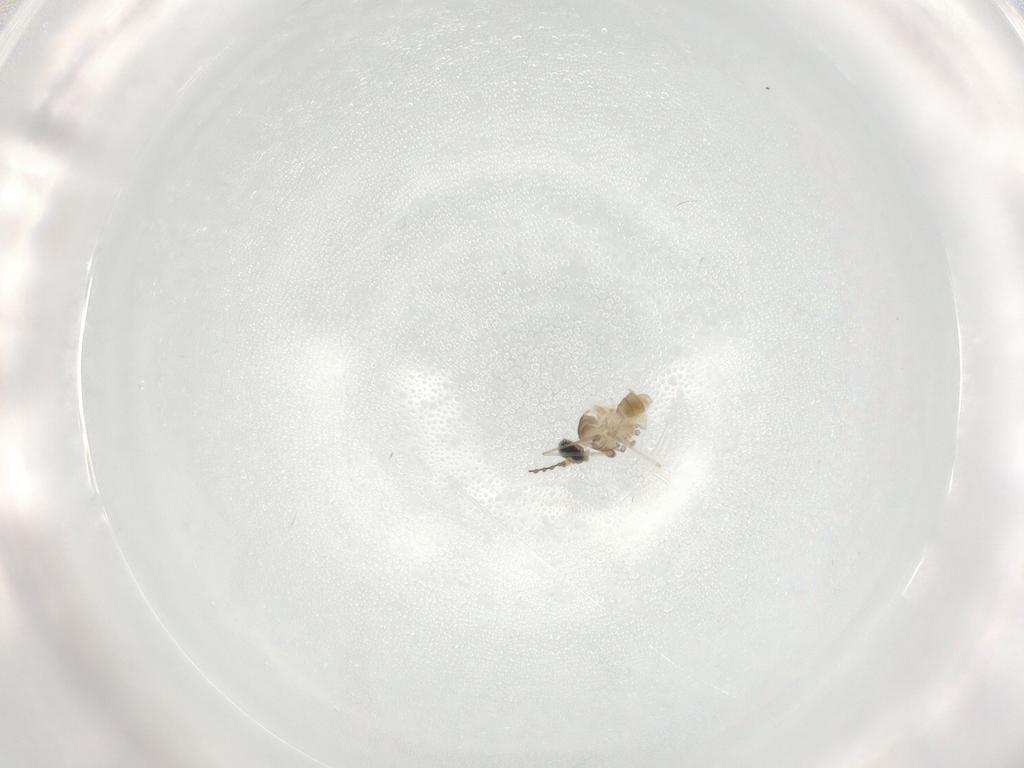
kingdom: Animalia
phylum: Arthropoda
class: Insecta
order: Diptera
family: Cecidomyiidae
